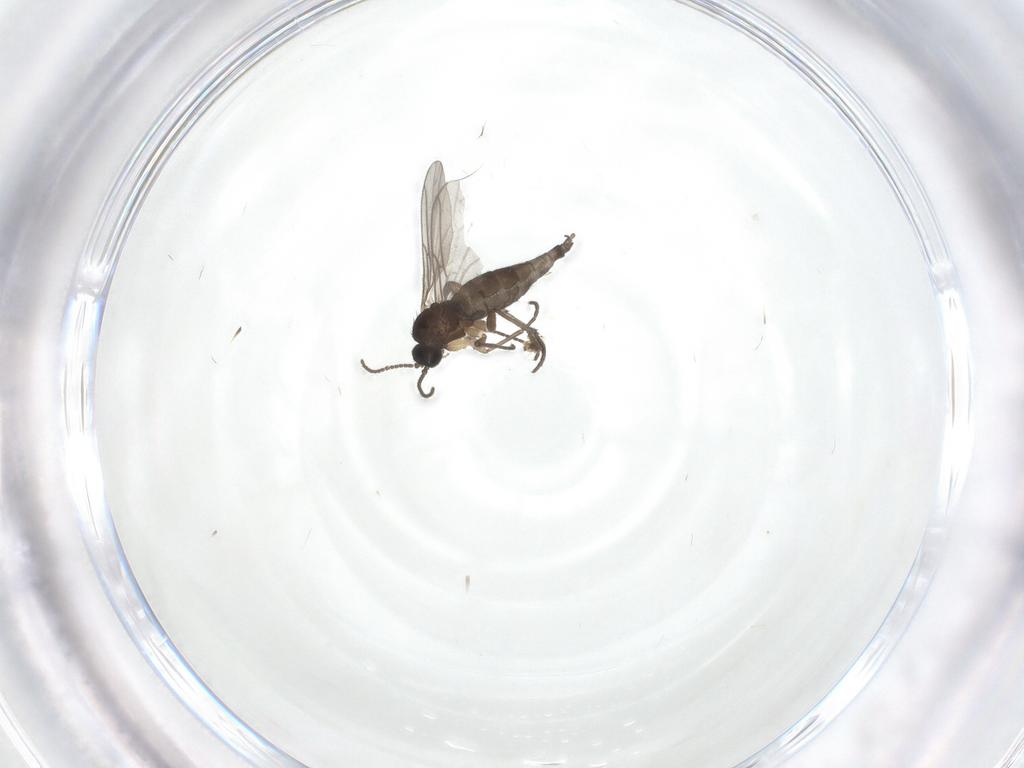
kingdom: Animalia
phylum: Arthropoda
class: Insecta
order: Diptera
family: Sciaridae
